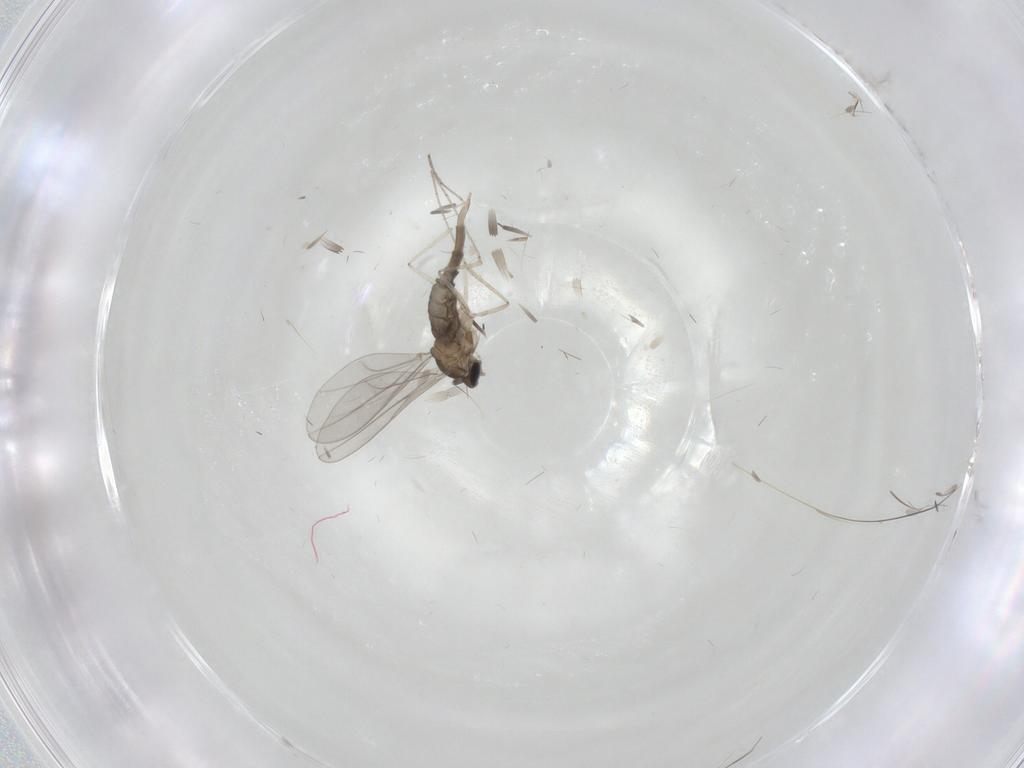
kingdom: Animalia
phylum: Arthropoda
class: Insecta
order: Diptera
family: Cecidomyiidae
